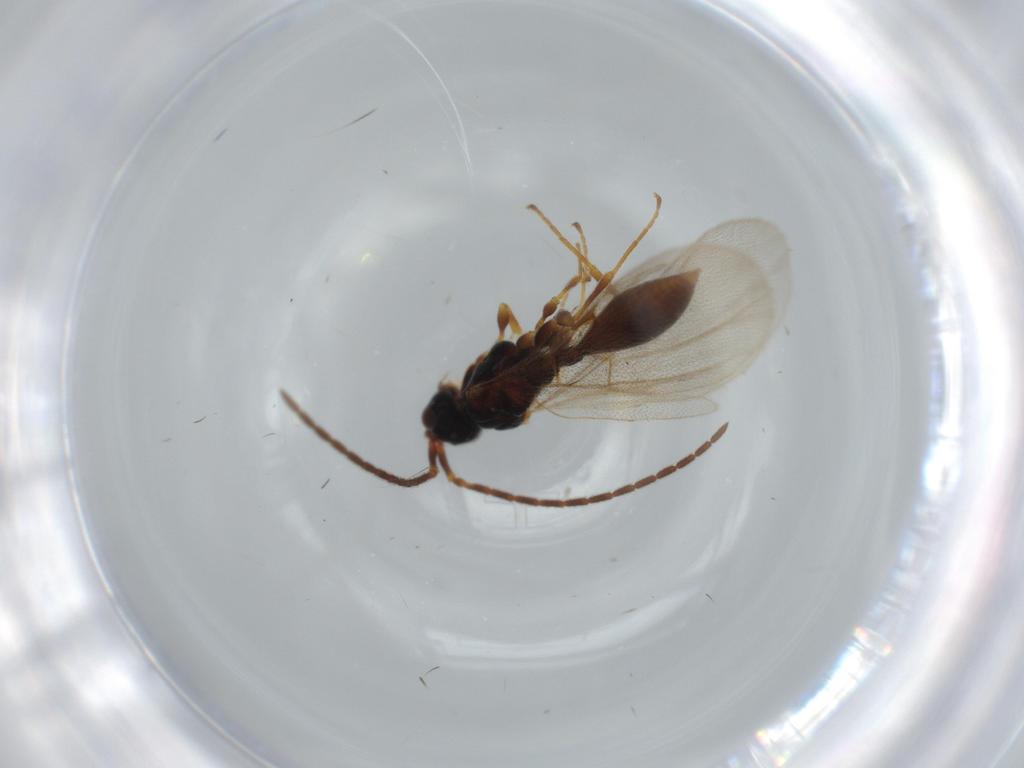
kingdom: Animalia
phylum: Arthropoda
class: Insecta
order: Hymenoptera
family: Diapriidae
